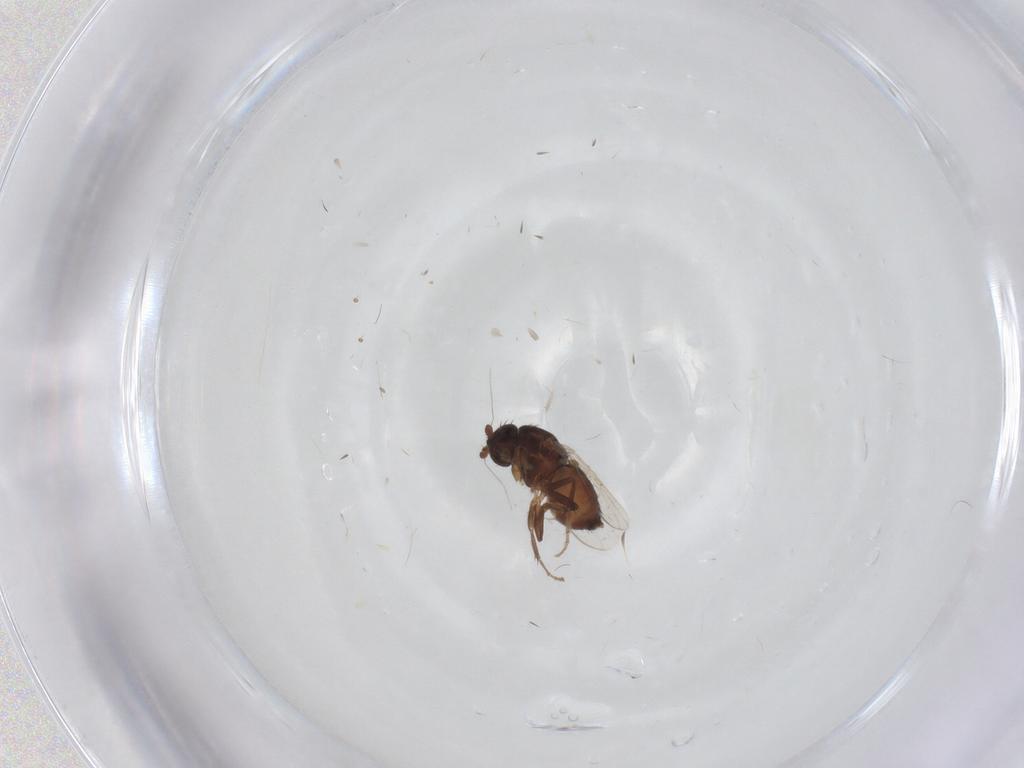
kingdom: Animalia
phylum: Arthropoda
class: Insecta
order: Diptera
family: Sphaeroceridae
